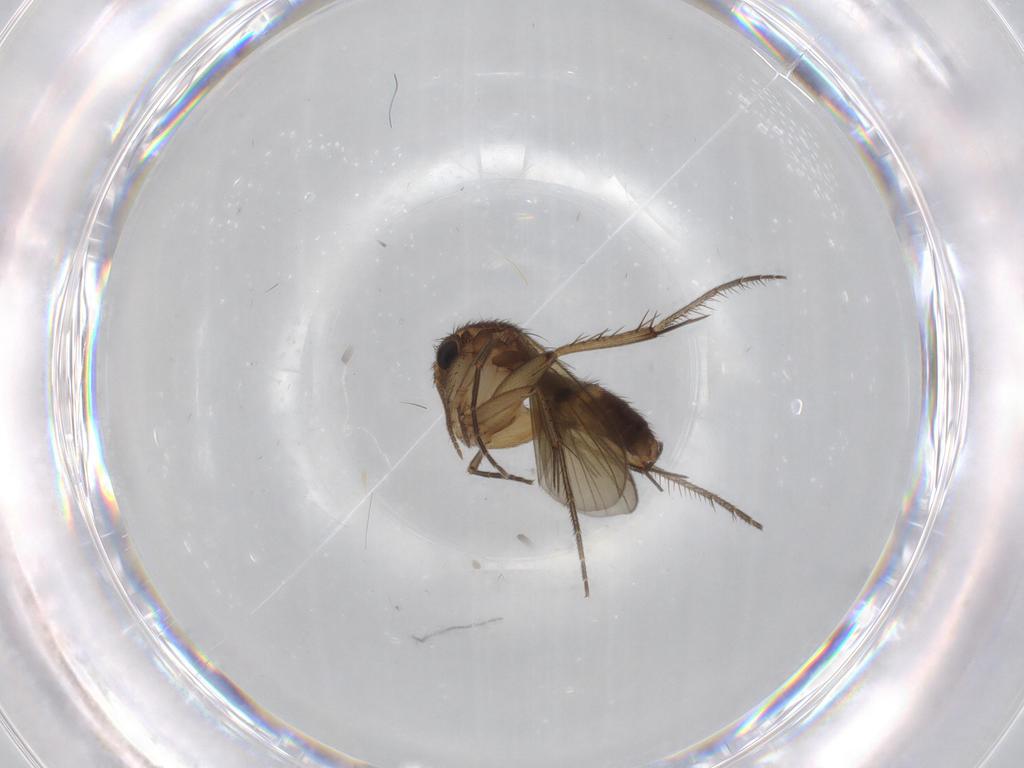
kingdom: Animalia
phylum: Arthropoda
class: Insecta
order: Diptera
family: Mycetophilidae
